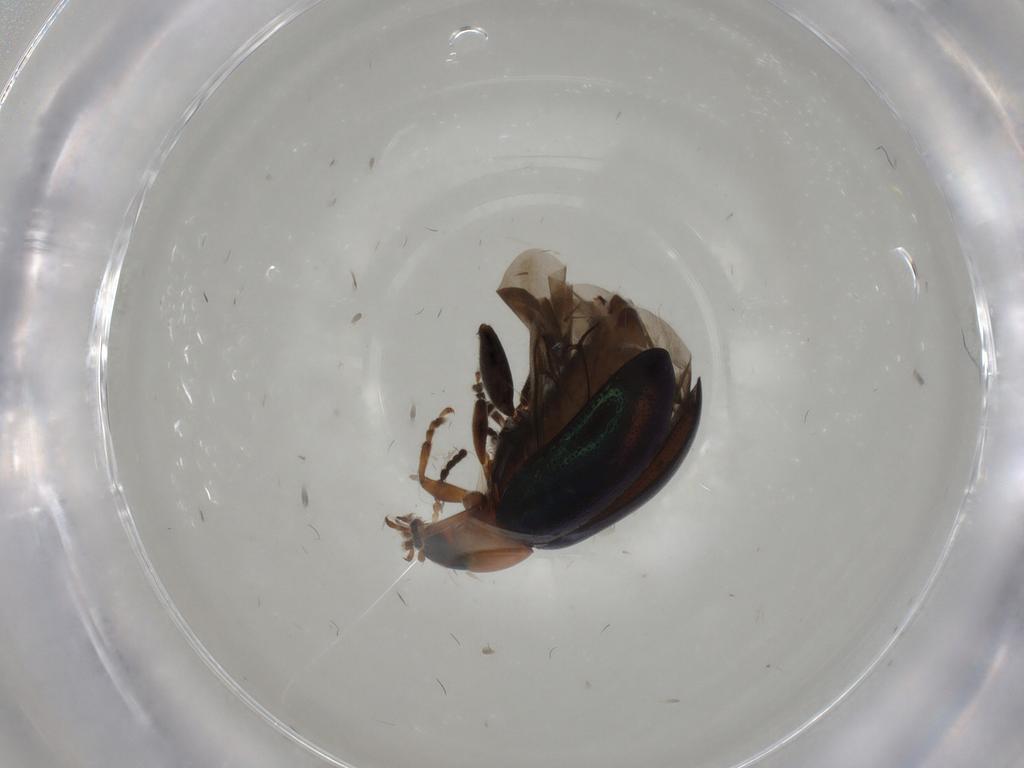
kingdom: Animalia
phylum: Arthropoda
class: Insecta
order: Coleoptera
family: Chrysomelidae
